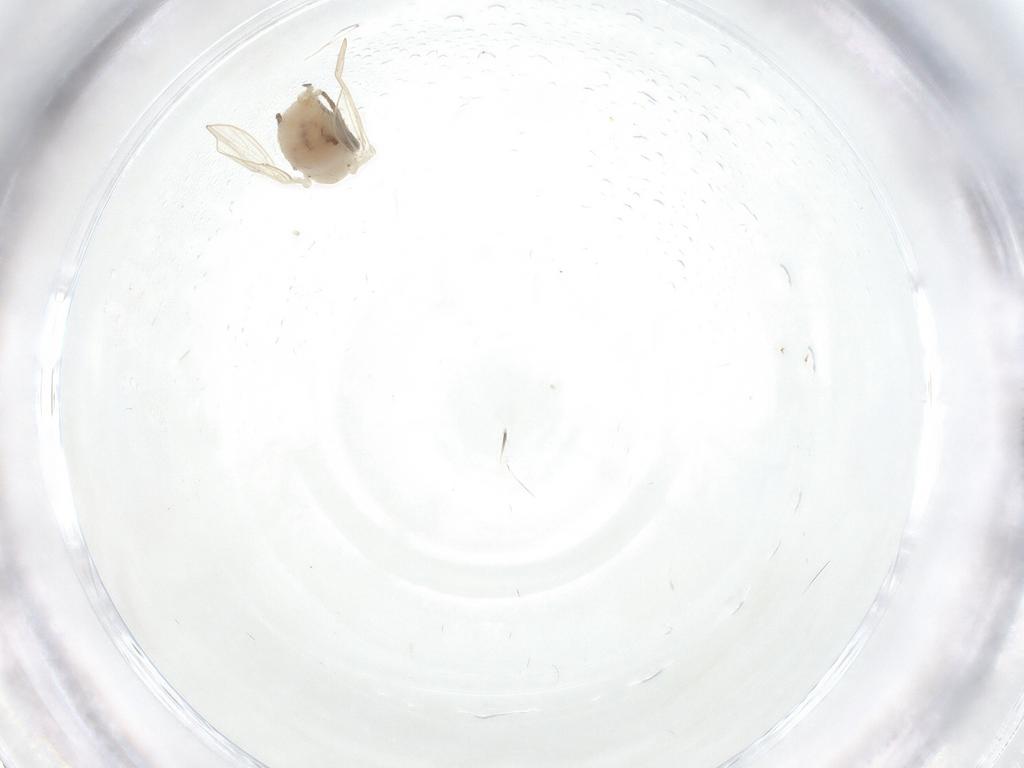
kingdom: Animalia
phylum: Arthropoda
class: Insecta
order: Diptera
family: Psychodidae
